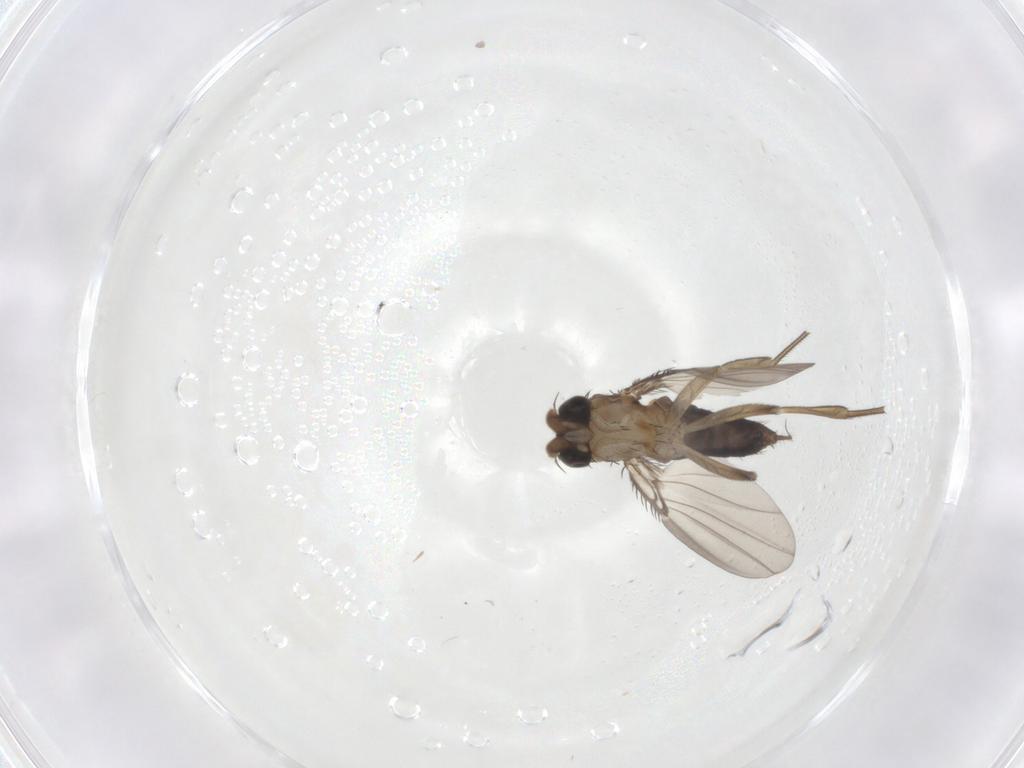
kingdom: Animalia
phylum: Arthropoda
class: Insecta
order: Diptera
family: Phoridae
